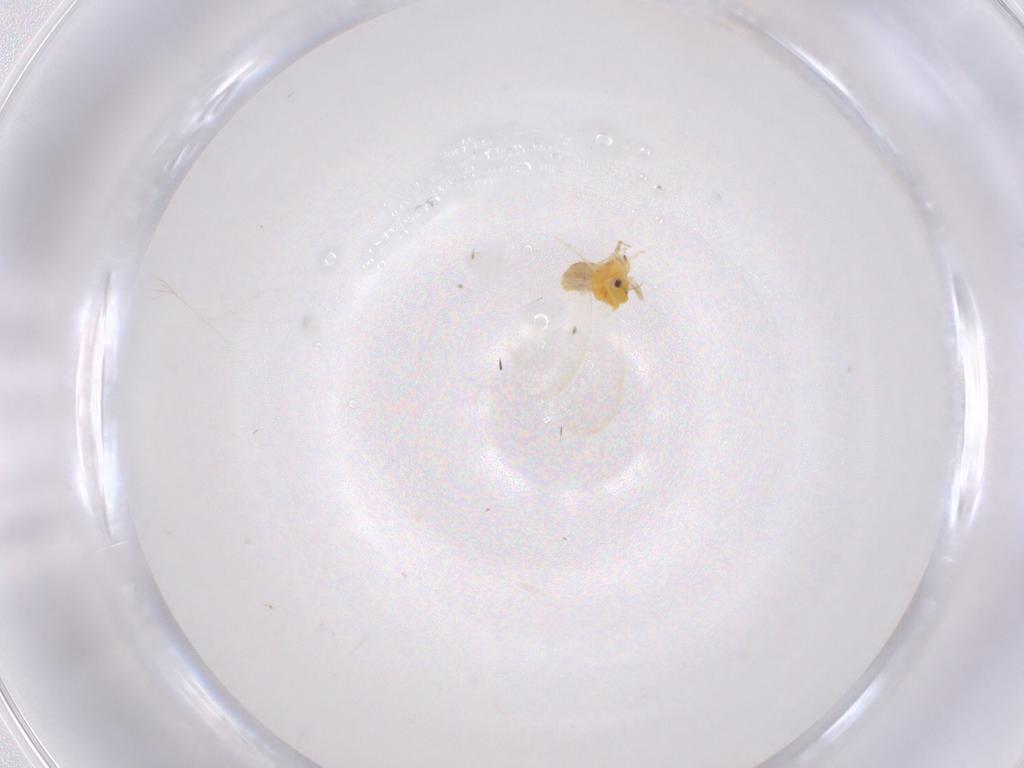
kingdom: Animalia
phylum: Arthropoda
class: Insecta
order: Hemiptera
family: Aleyrodidae
